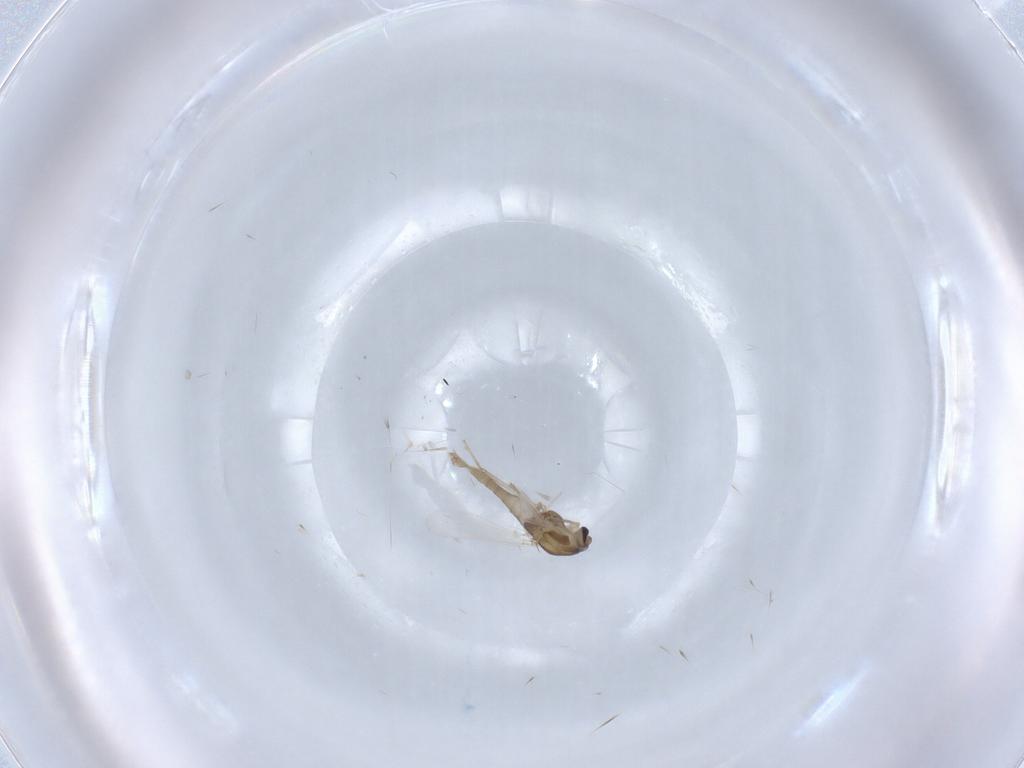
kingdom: Animalia
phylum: Arthropoda
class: Insecta
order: Diptera
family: Chironomidae
